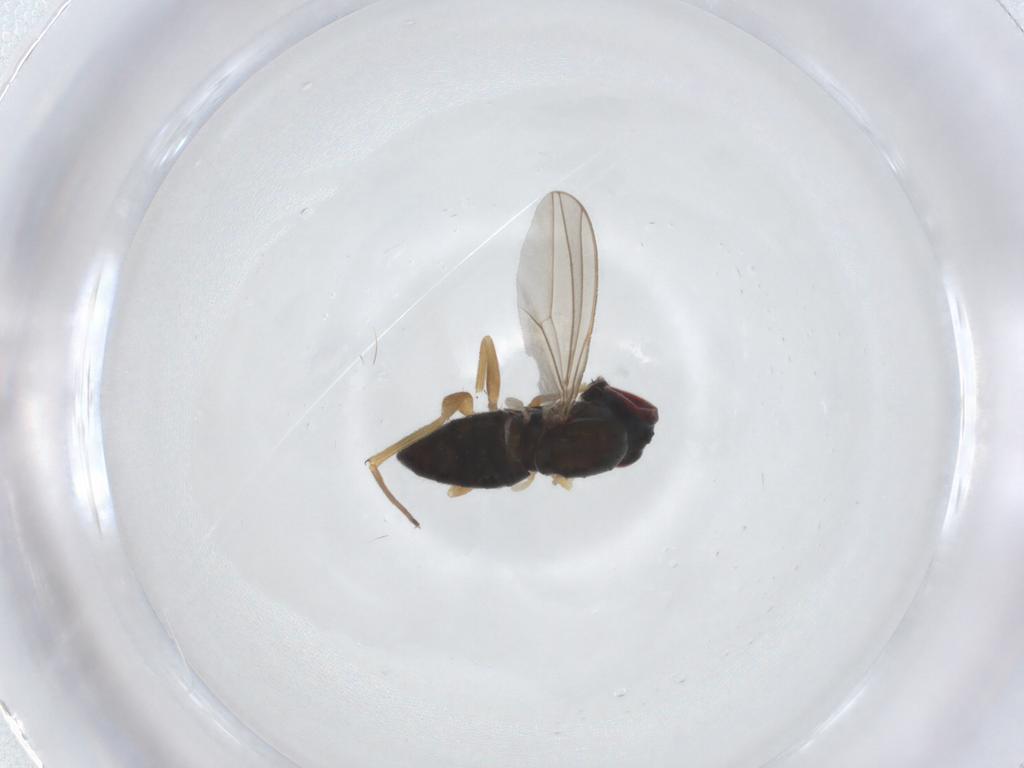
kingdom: Animalia
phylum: Arthropoda
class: Insecta
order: Diptera
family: Dolichopodidae
